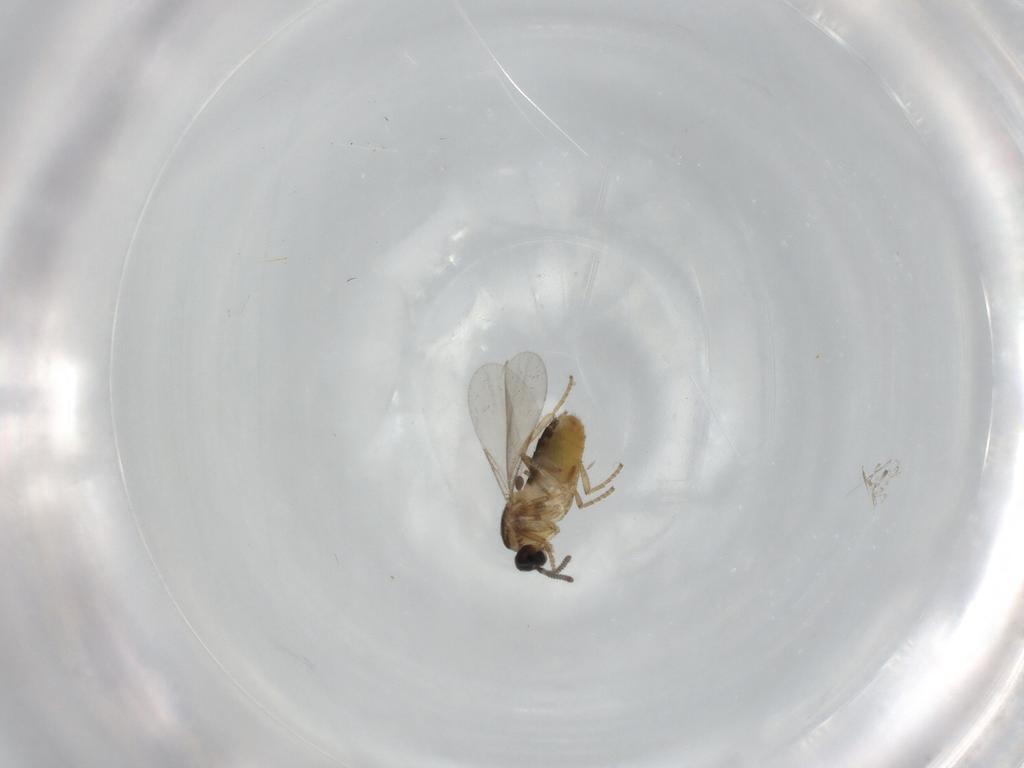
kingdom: Animalia
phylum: Arthropoda
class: Insecta
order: Diptera
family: Scatopsidae
